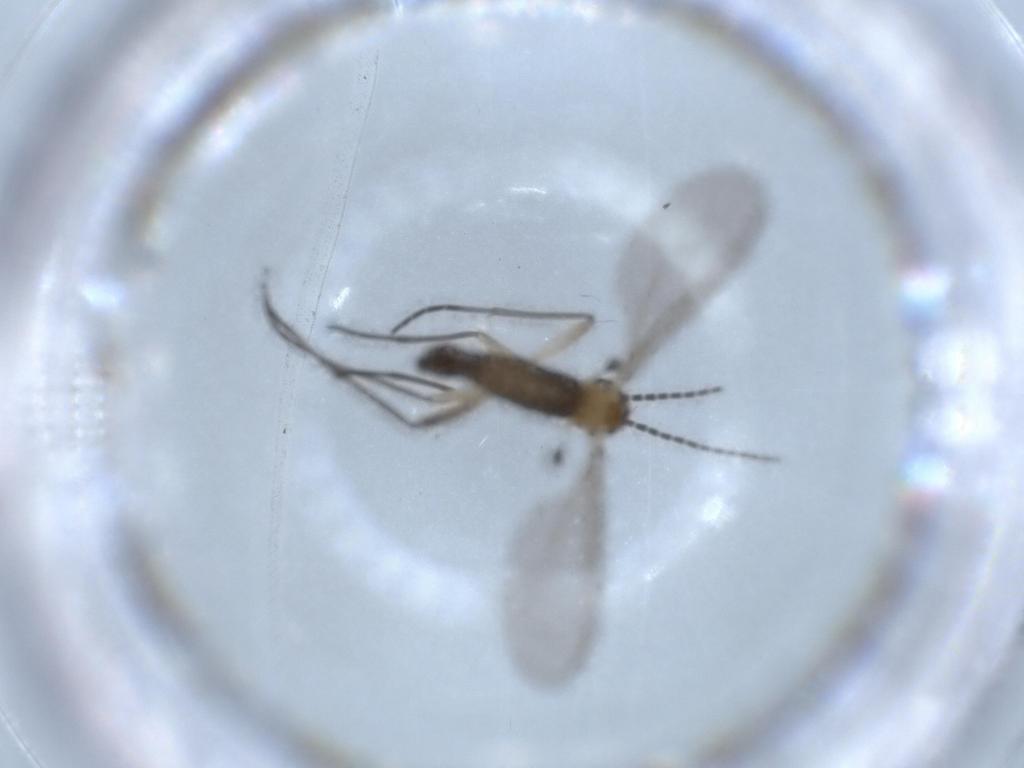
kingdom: Animalia
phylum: Arthropoda
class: Insecta
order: Diptera
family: Sciaridae
